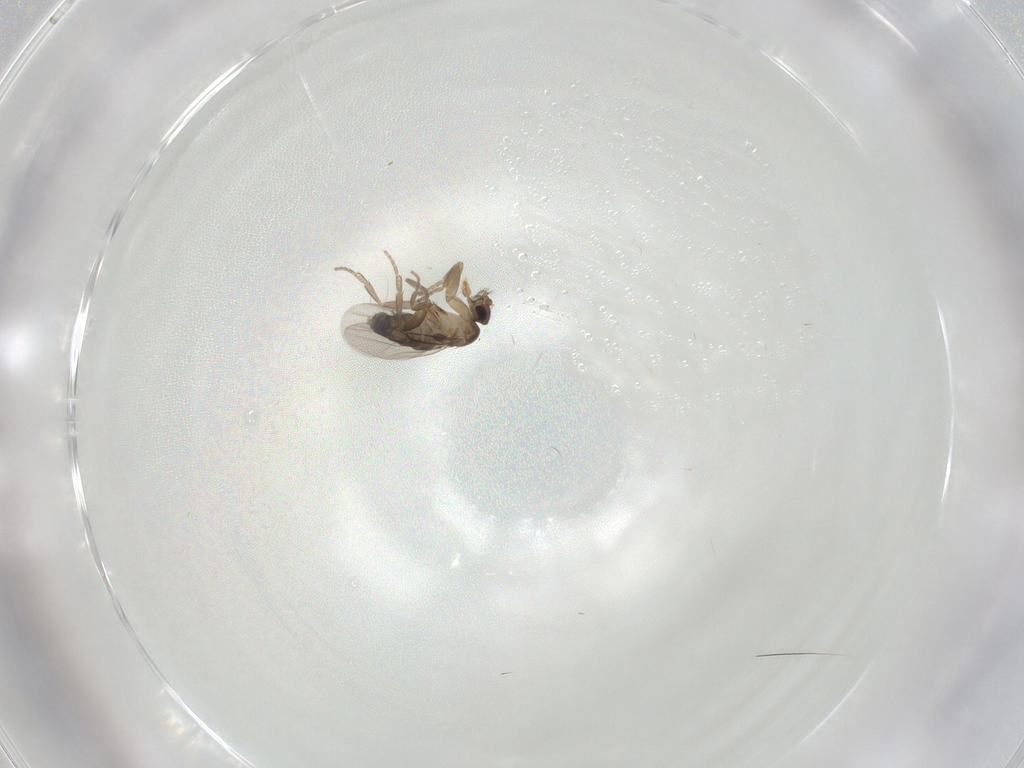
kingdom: Animalia
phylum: Arthropoda
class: Insecta
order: Diptera
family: Phoridae
